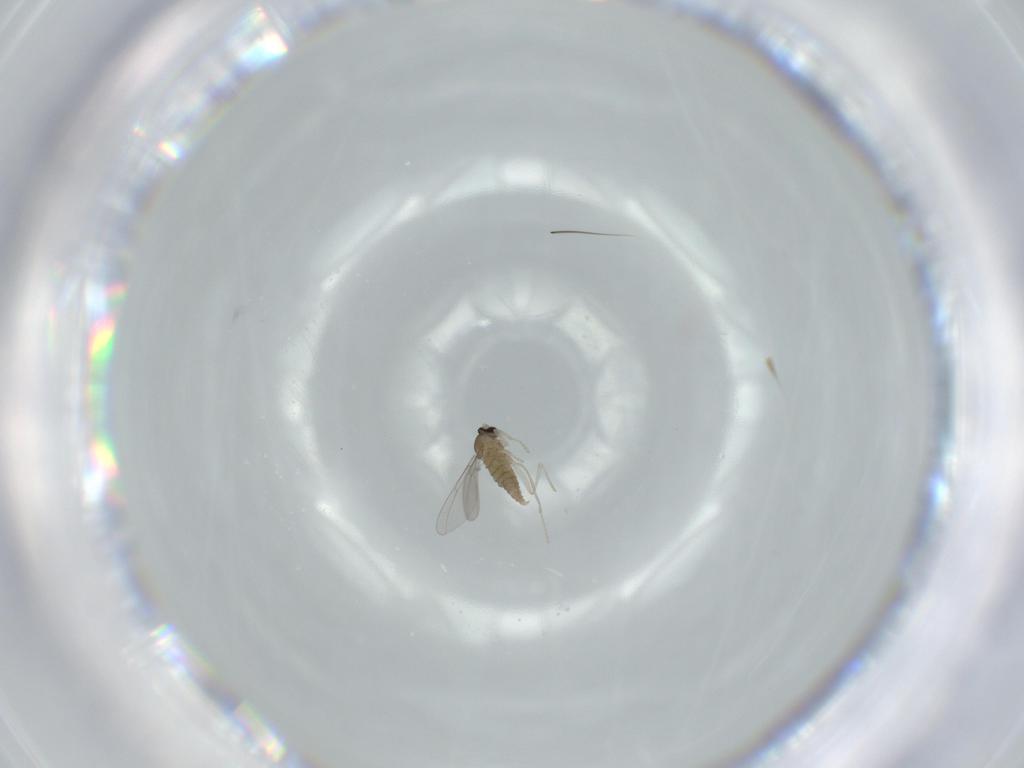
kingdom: Animalia
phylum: Arthropoda
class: Insecta
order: Diptera
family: Cecidomyiidae
